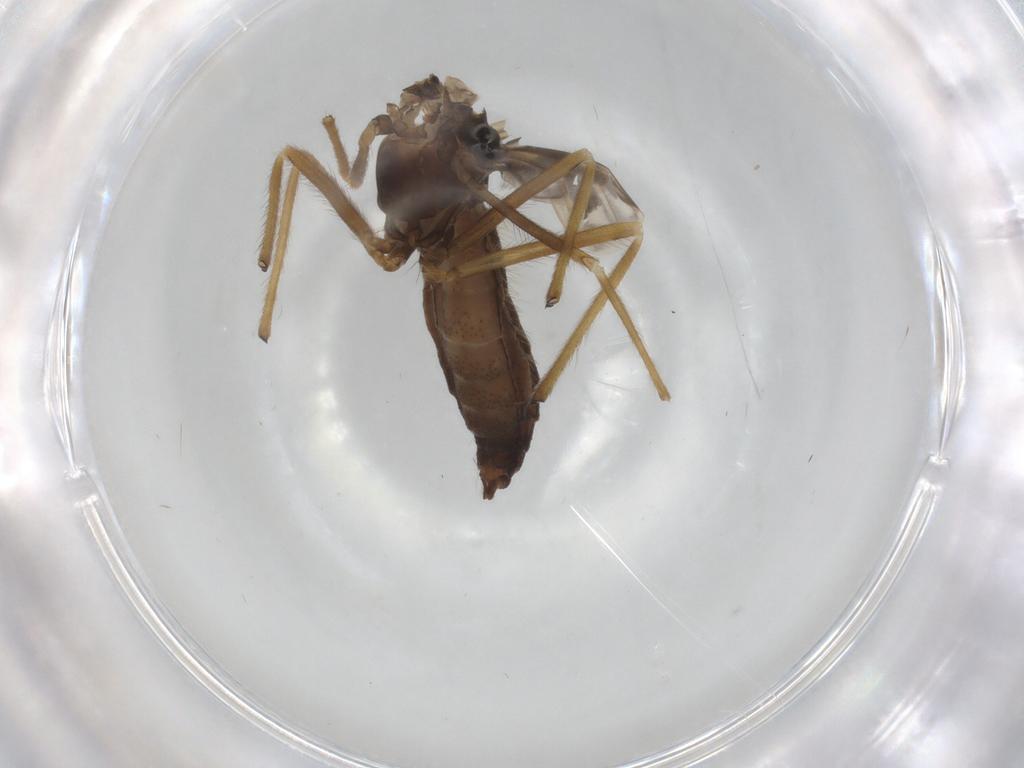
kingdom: Animalia
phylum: Arthropoda
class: Insecta
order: Diptera
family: Chironomidae
